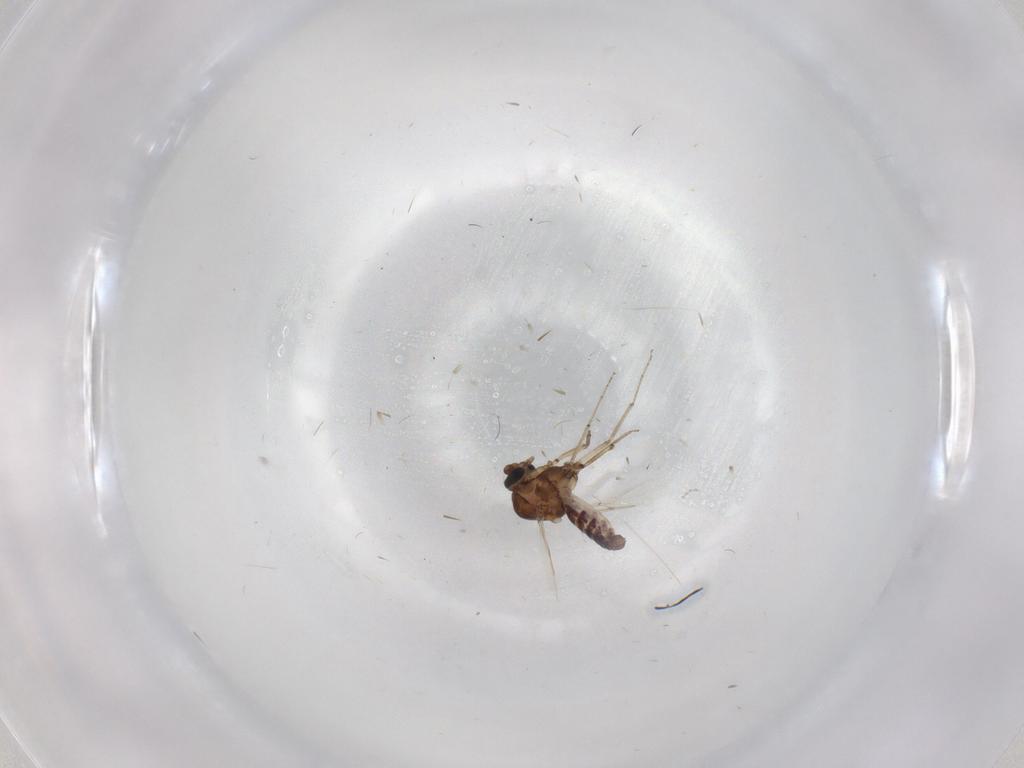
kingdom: Animalia
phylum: Arthropoda
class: Insecta
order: Diptera
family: Ceratopogonidae
